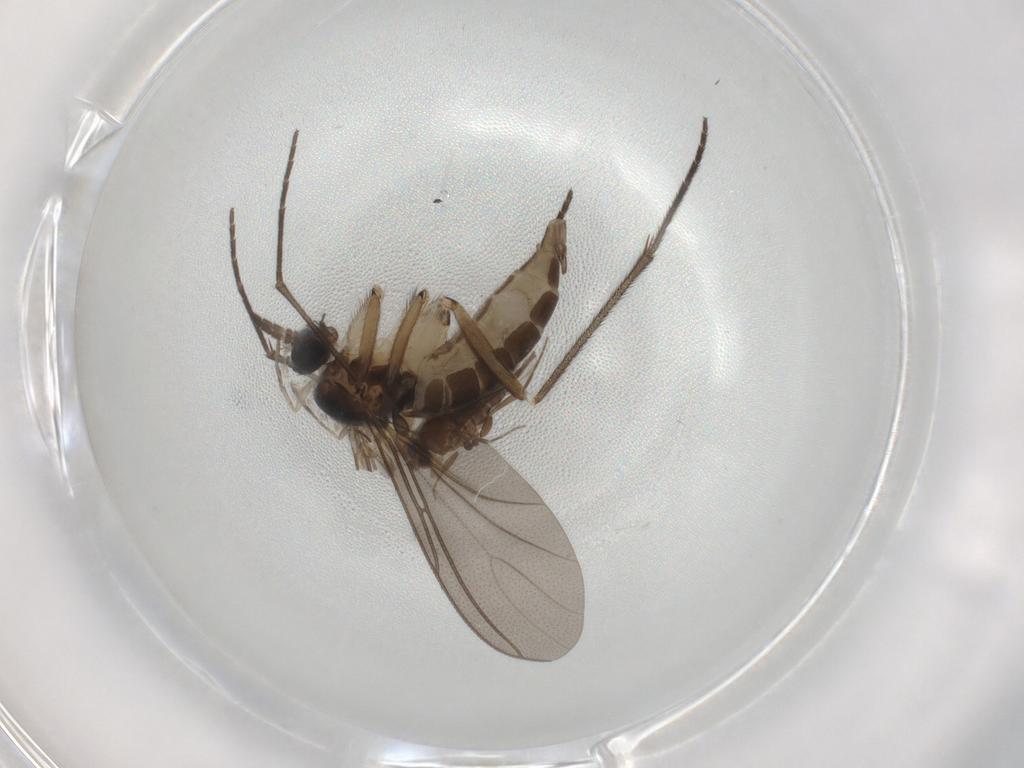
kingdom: Animalia
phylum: Arthropoda
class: Insecta
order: Diptera
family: Sciaridae
